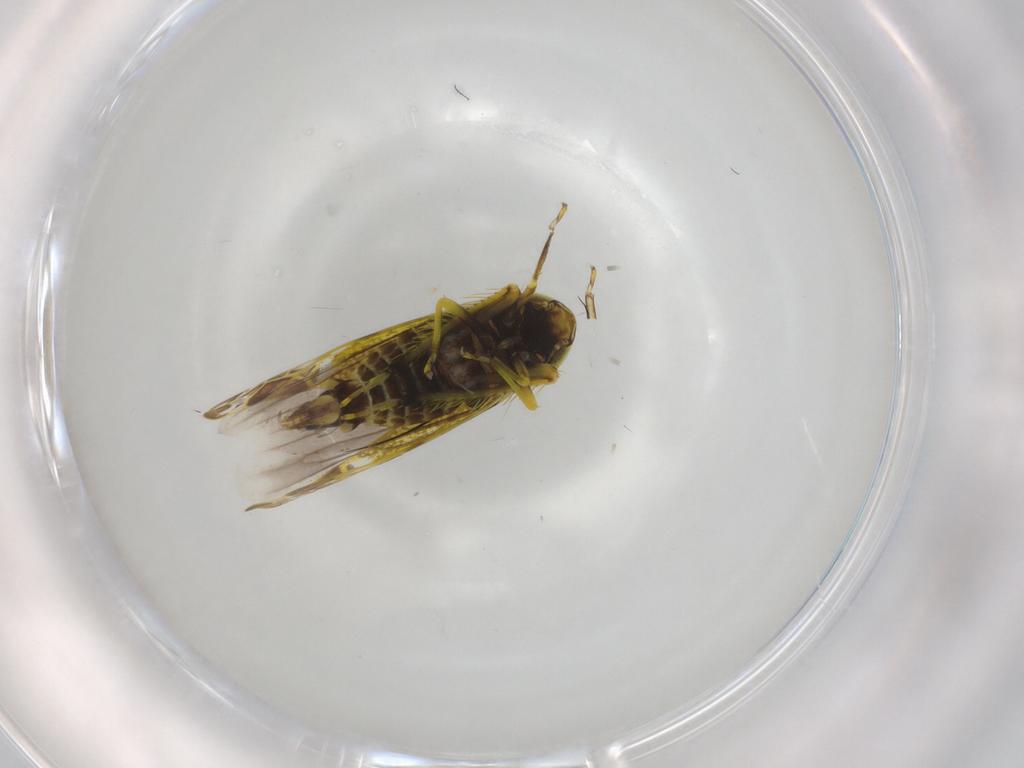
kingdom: Animalia
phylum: Arthropoda
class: Insecta
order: Hemiptera
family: Cicadellidae
